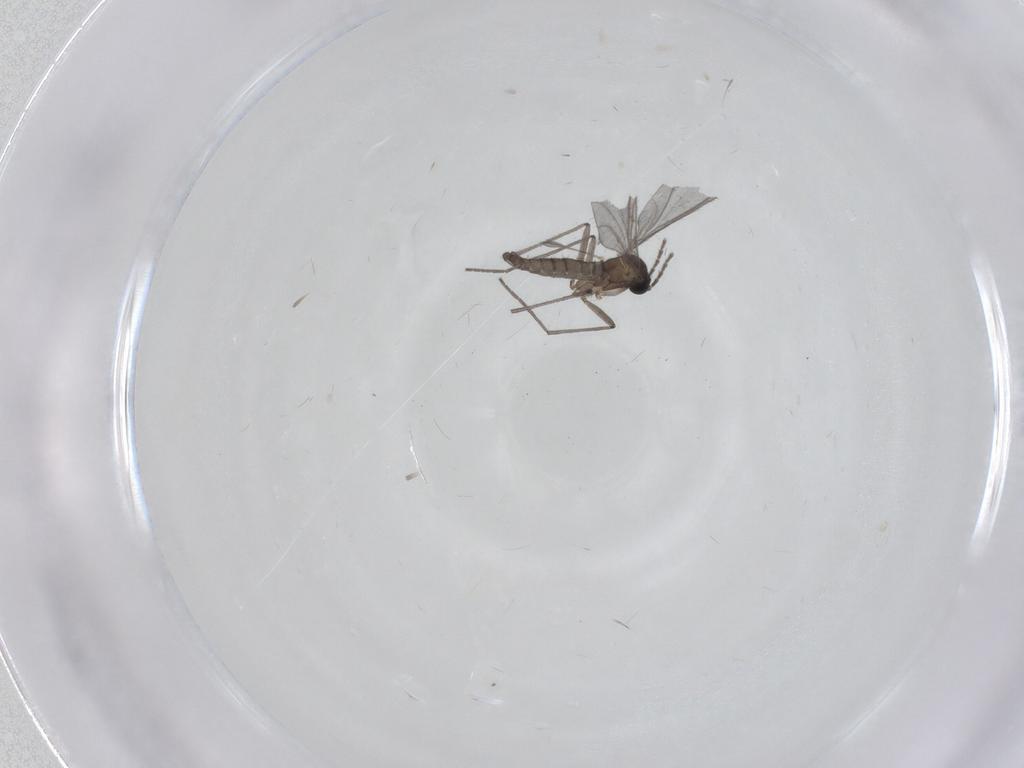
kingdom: Animalia
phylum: Arthropoda
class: Insecta
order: Diptera
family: Sciaridae
